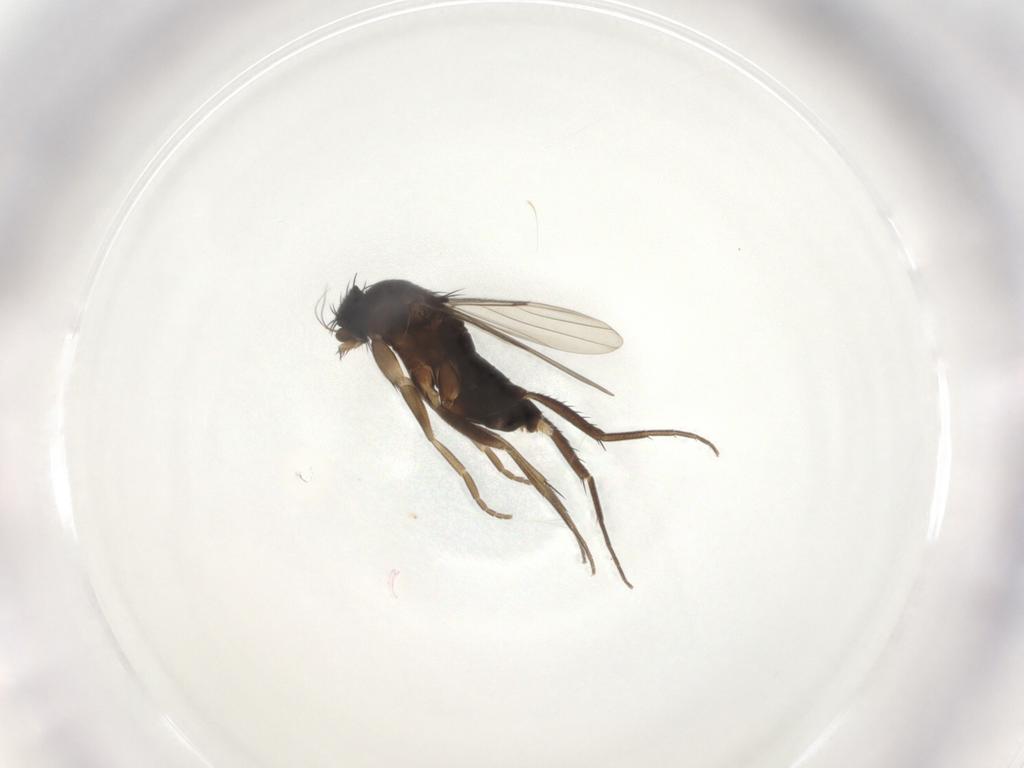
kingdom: Animalia
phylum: Arthropoda
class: Insecta
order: Diptera
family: Phoridae
